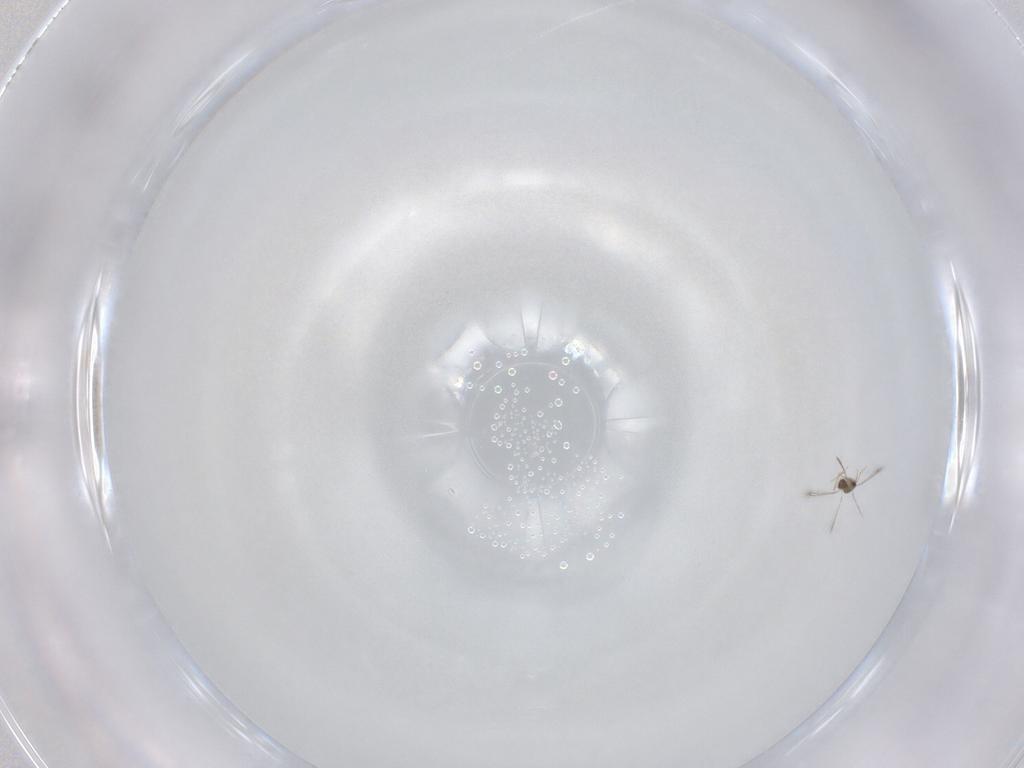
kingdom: Animalia
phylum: Arthropoda
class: Insecta
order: Hymenoptera
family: Mymaridae
